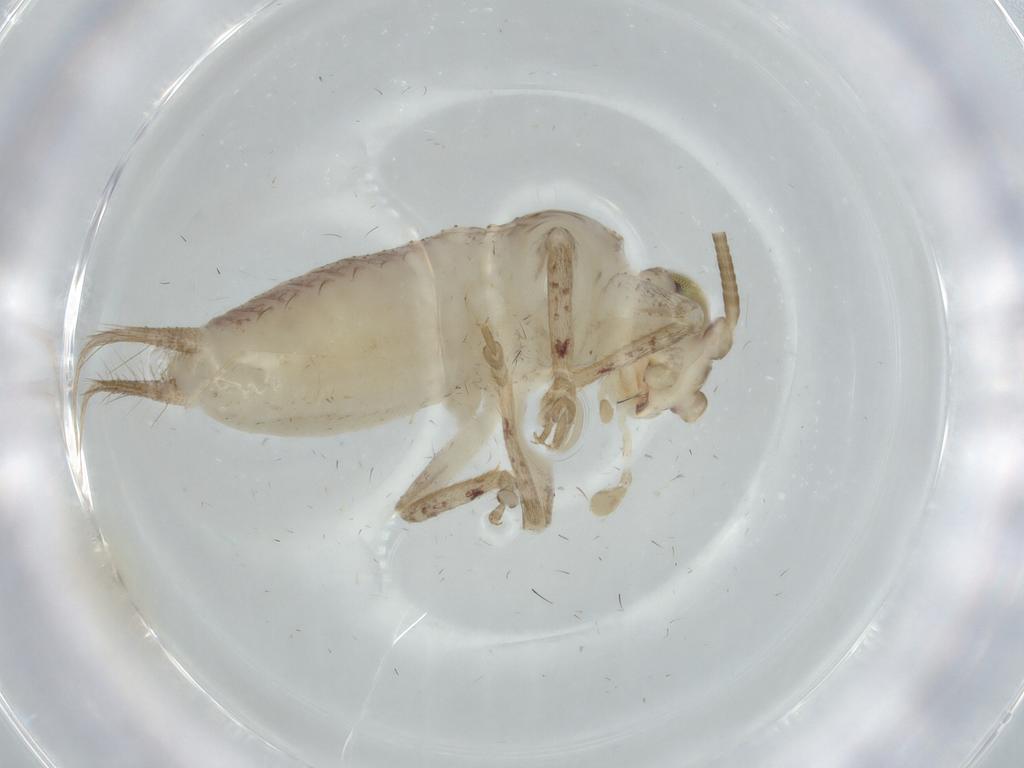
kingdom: Animalia
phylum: Arthropoda
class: Insecta
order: Orthoptera
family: Gryllidae
